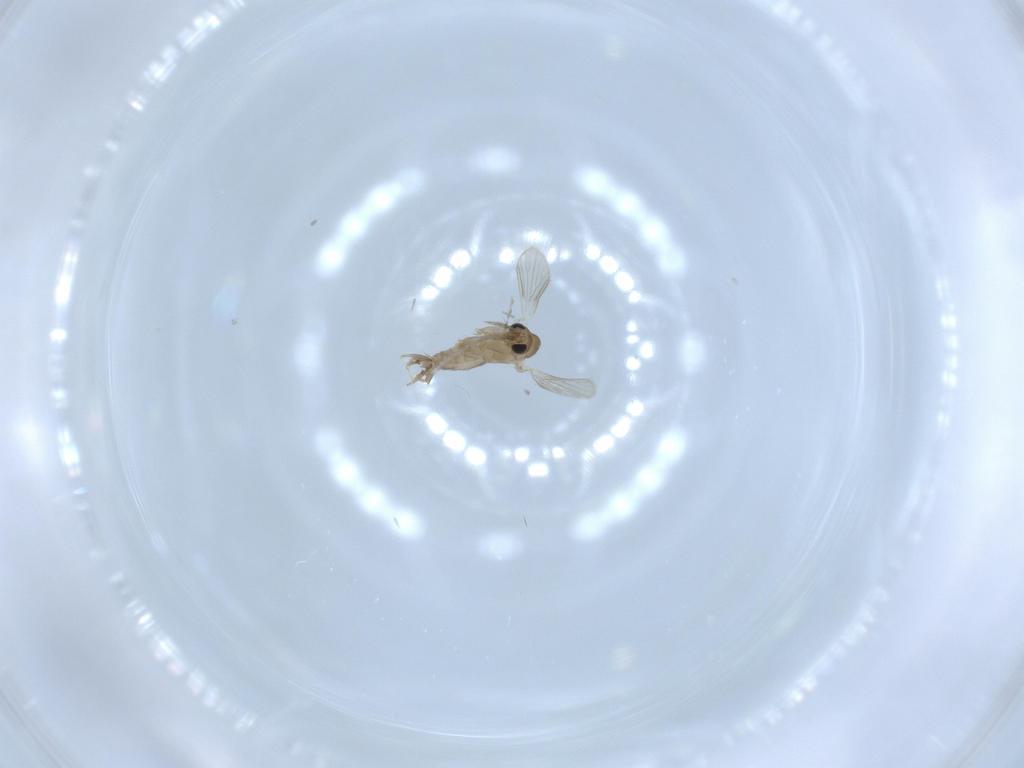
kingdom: Animalia
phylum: Arthropoda
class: Insecta
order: Diptera
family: Psychodidae
